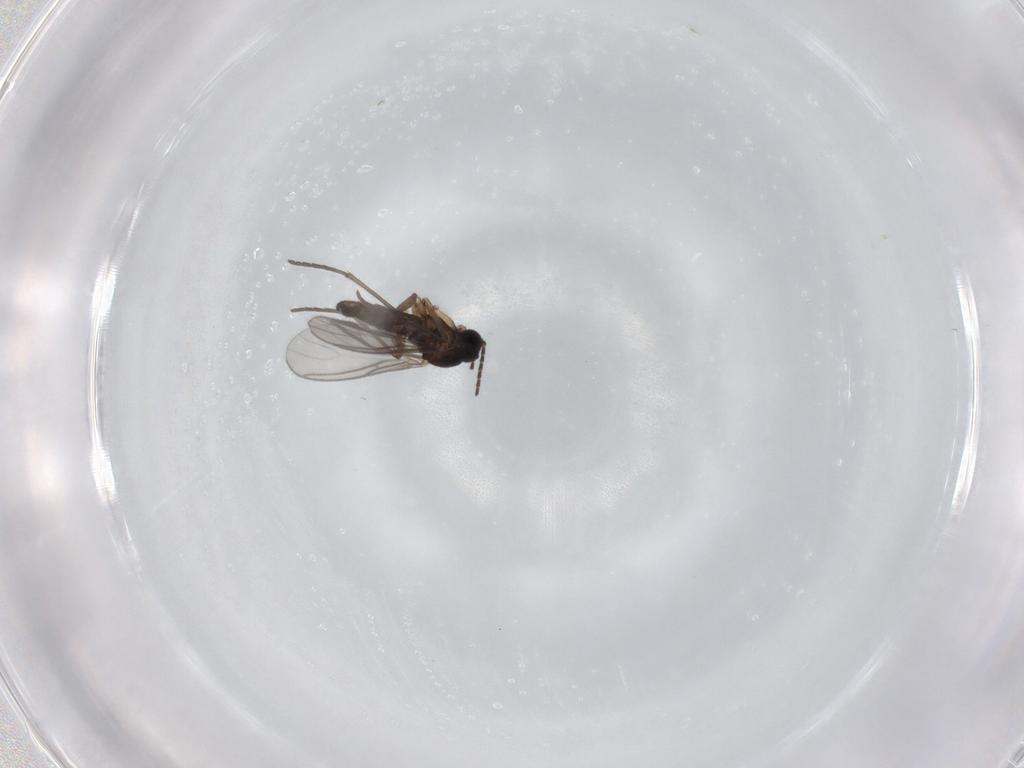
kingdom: Animalia
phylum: Arthropoda
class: Insecta
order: Diptera
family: Sciaridae
